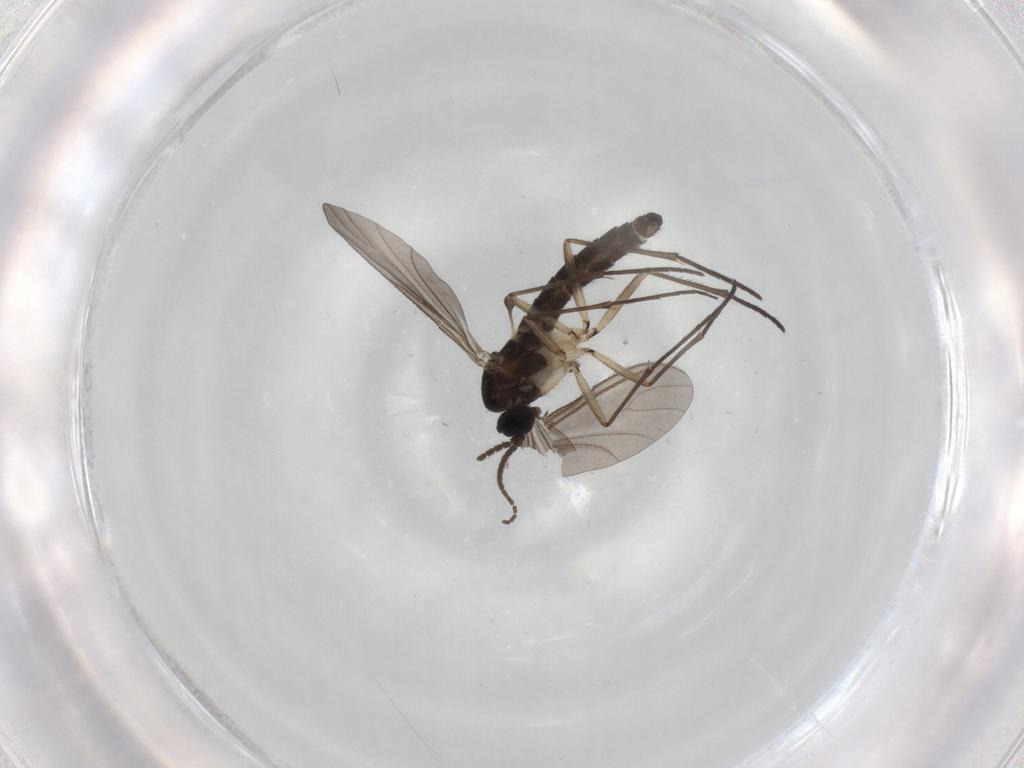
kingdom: Animalia
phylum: Arthropoda
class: Insecta
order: Diptera
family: Sciaridae
